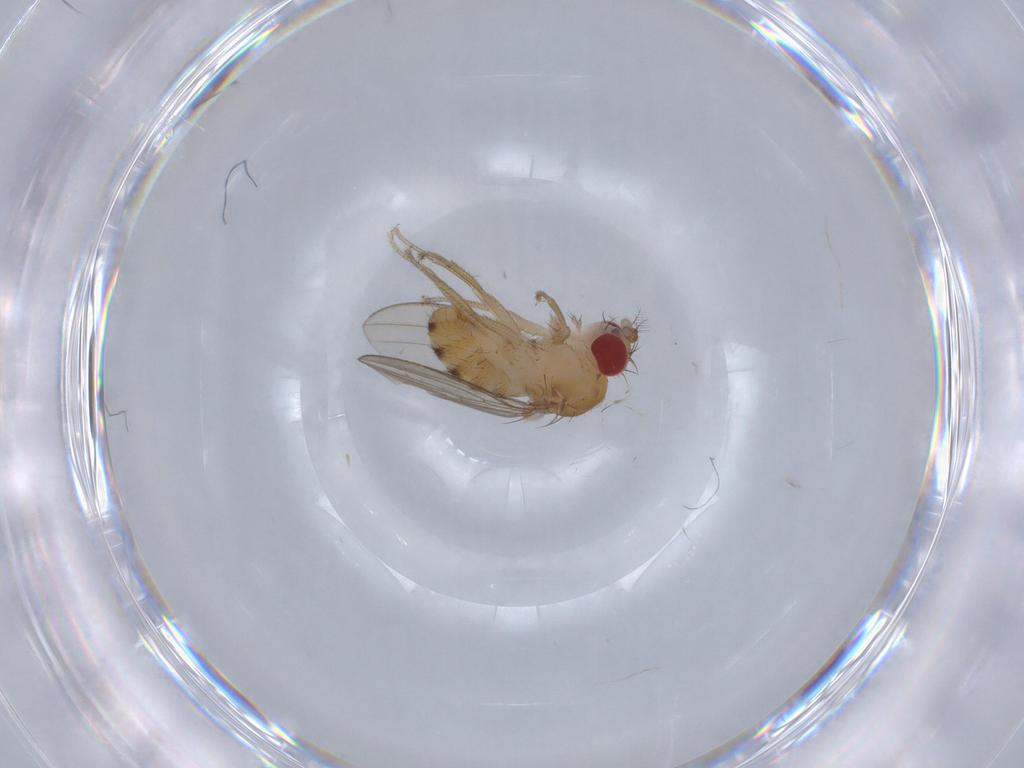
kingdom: Animalia
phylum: Arthropoda
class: Insecta
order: Diptera
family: Drosophilidae
